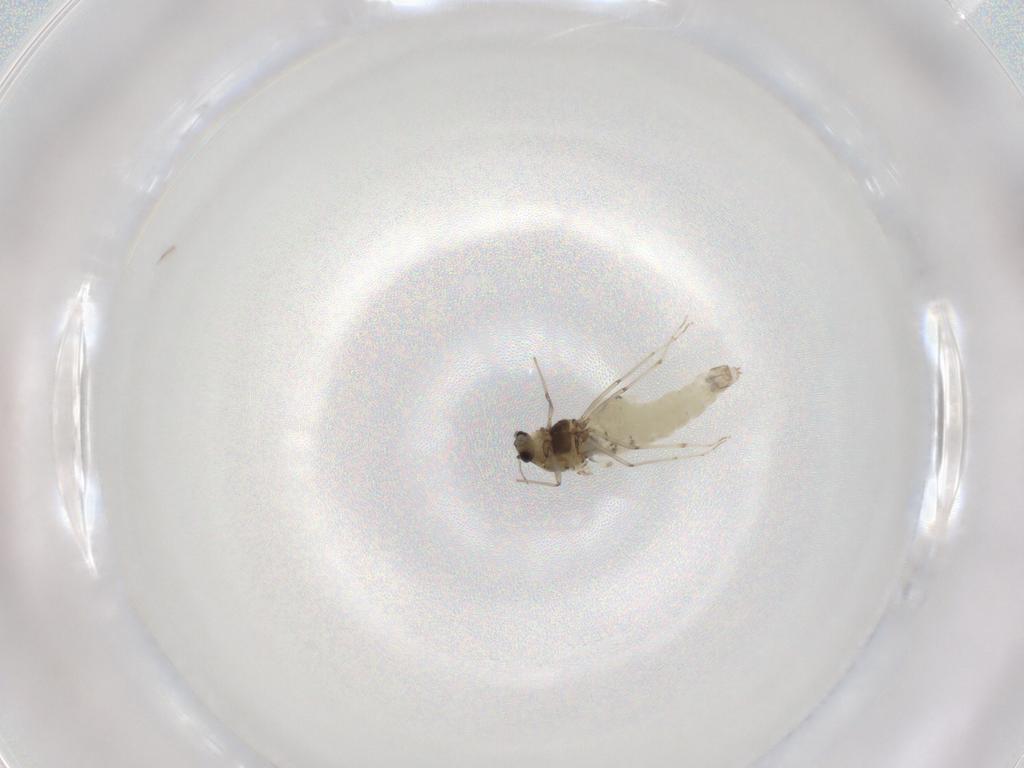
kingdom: Animalia
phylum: Arthropoda
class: Insecta
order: Diptera
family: Chironomidae
